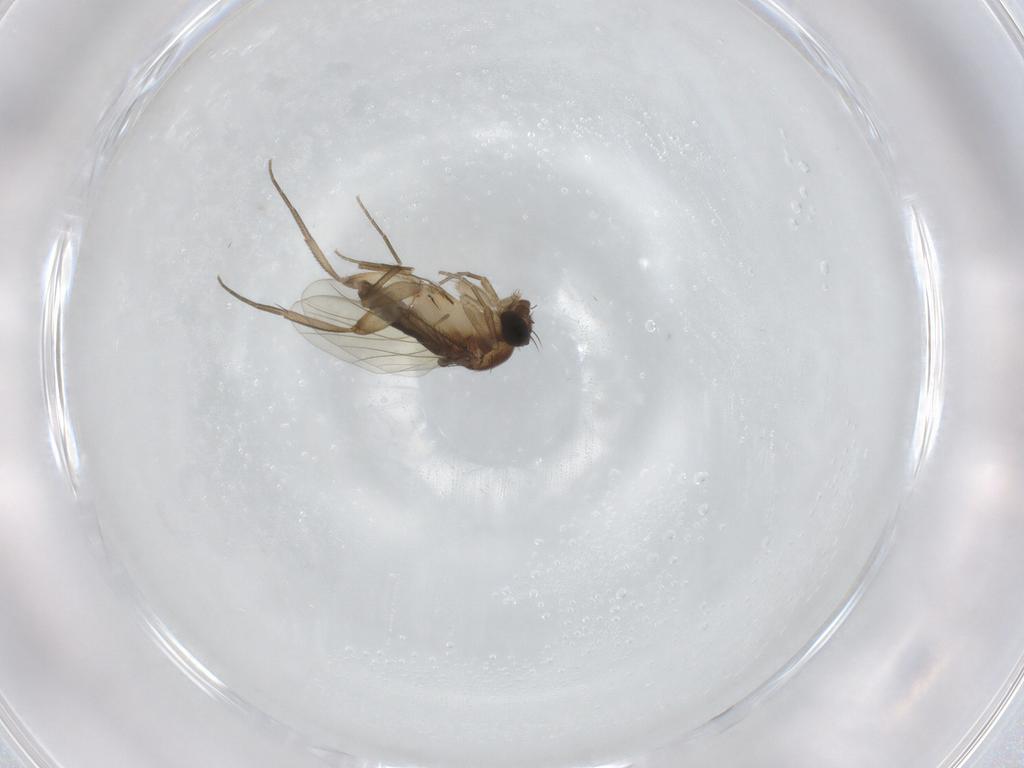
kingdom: Animalia
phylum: Arthropoda
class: Insecta
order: Diptera
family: Phoridae
